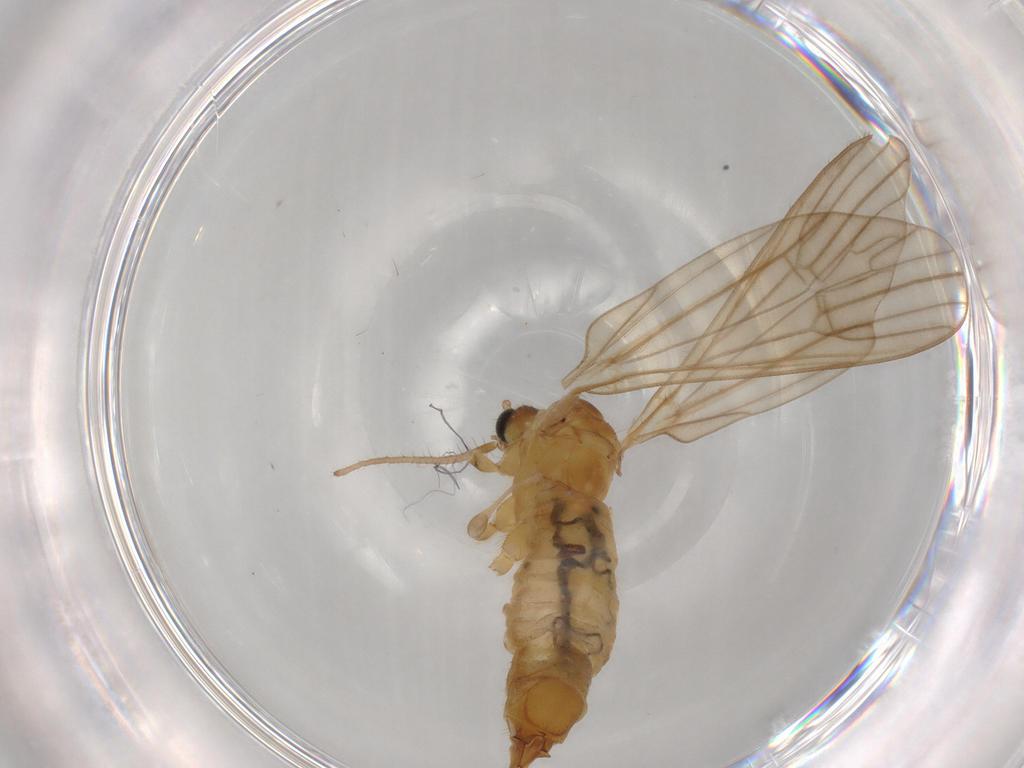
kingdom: Animalia
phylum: Arthropoda
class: Insecta
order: Diptera
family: Limoniidae
